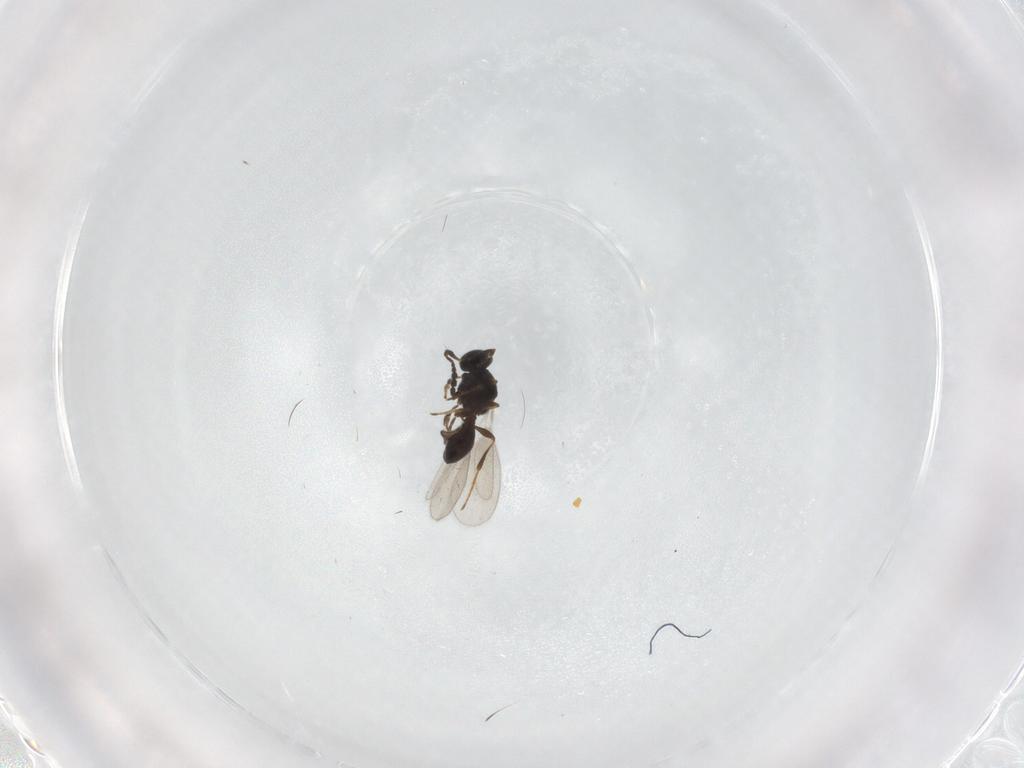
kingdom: Animalia
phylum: Arthropoda
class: Insecta
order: Hymenoptera
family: Platygastridae
